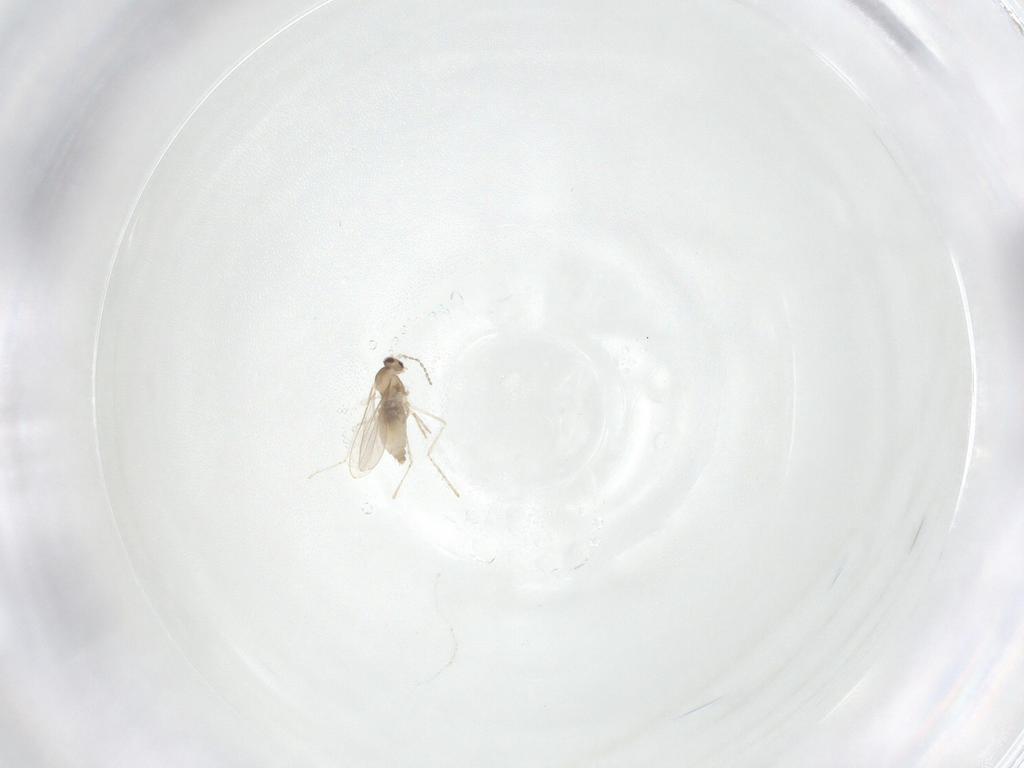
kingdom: Animalia
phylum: Arthropoda
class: Insecta
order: Diptera
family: Cecidomyiidae
